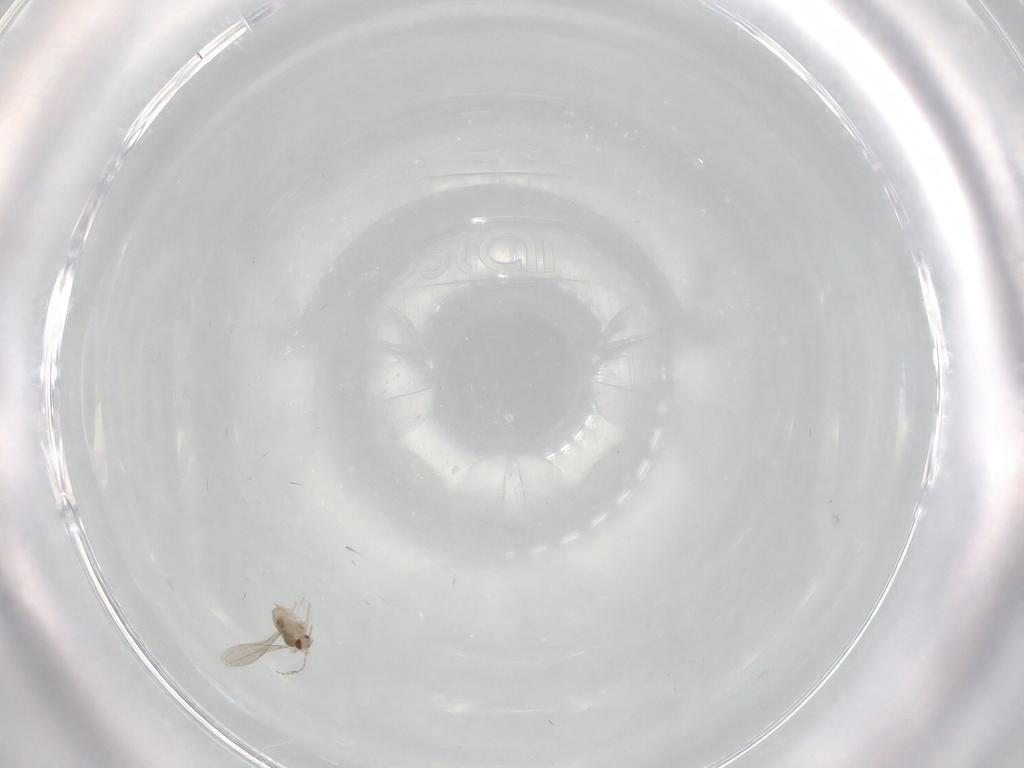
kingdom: Animalia
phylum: Arthropoda
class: Insecta
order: Diptera
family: Cecidomyiidae
